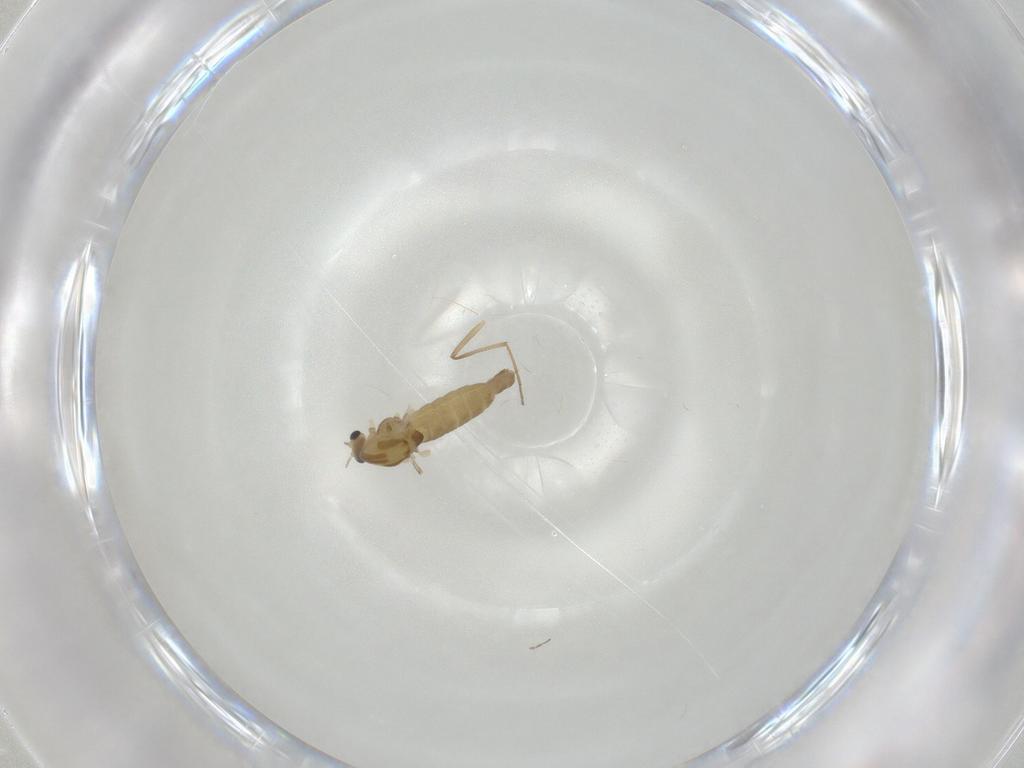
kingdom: Animalia
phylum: Arthropoda
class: Insecta
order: Diptera
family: Chironomidae
